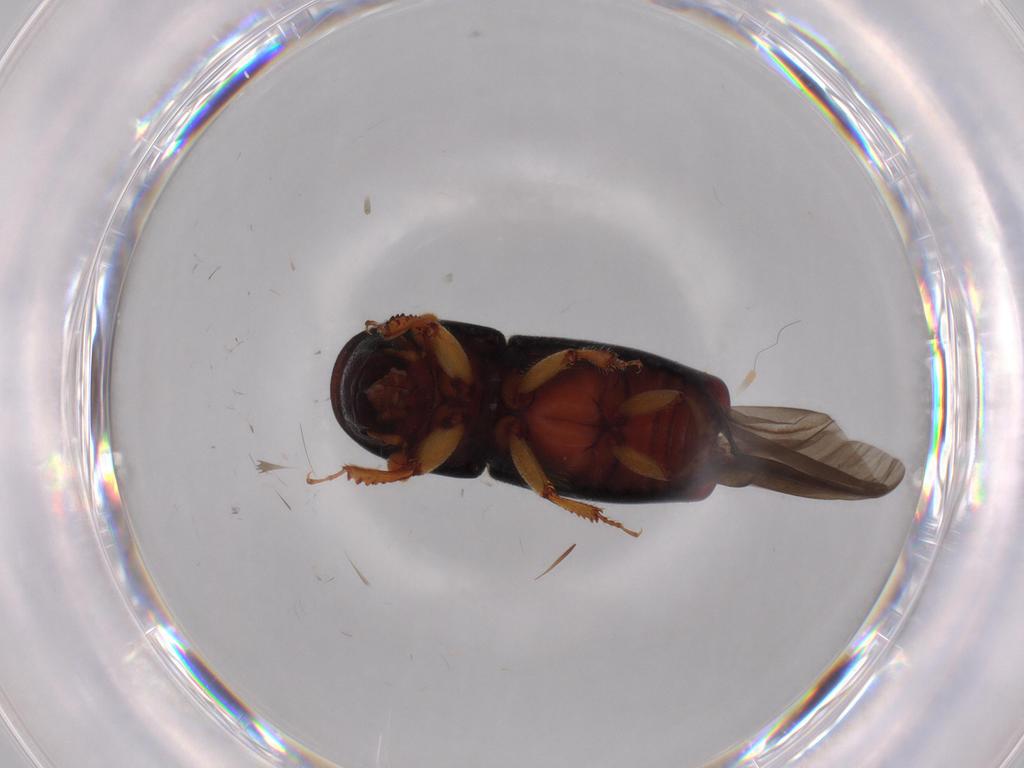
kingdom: Animalia
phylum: Arthropoda
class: Insecta
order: Coleoptera
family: Curculionidae
